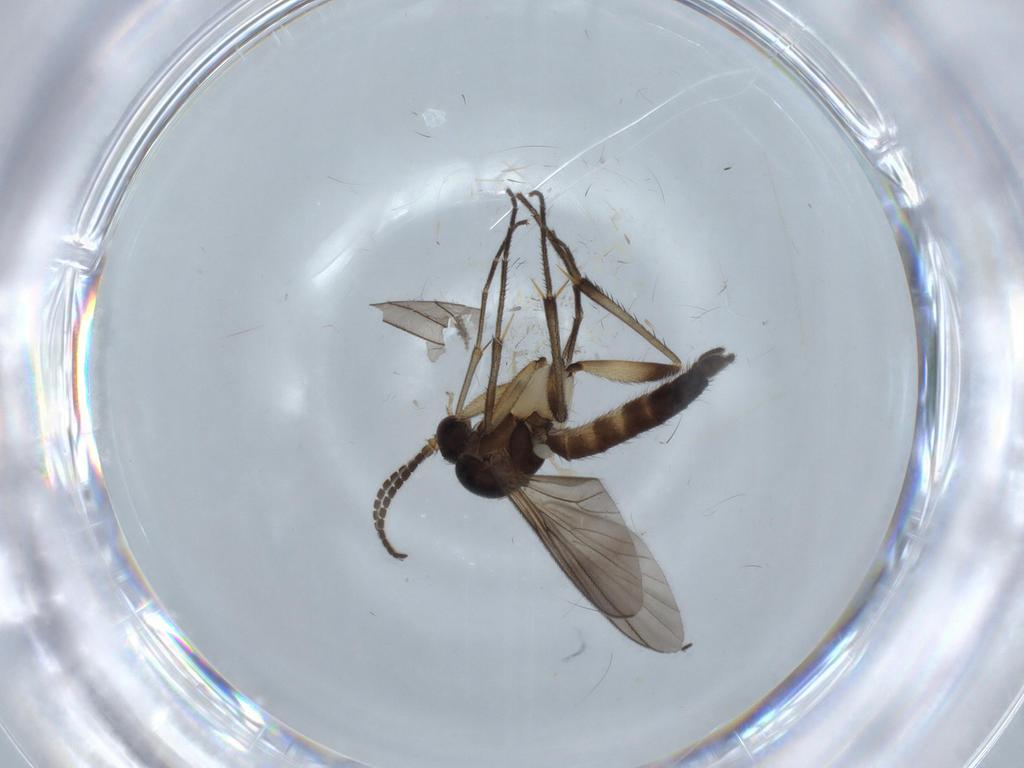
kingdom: Animalia
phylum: Arthropoda
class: Insecta
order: Diptera
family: Mycetophilidae
